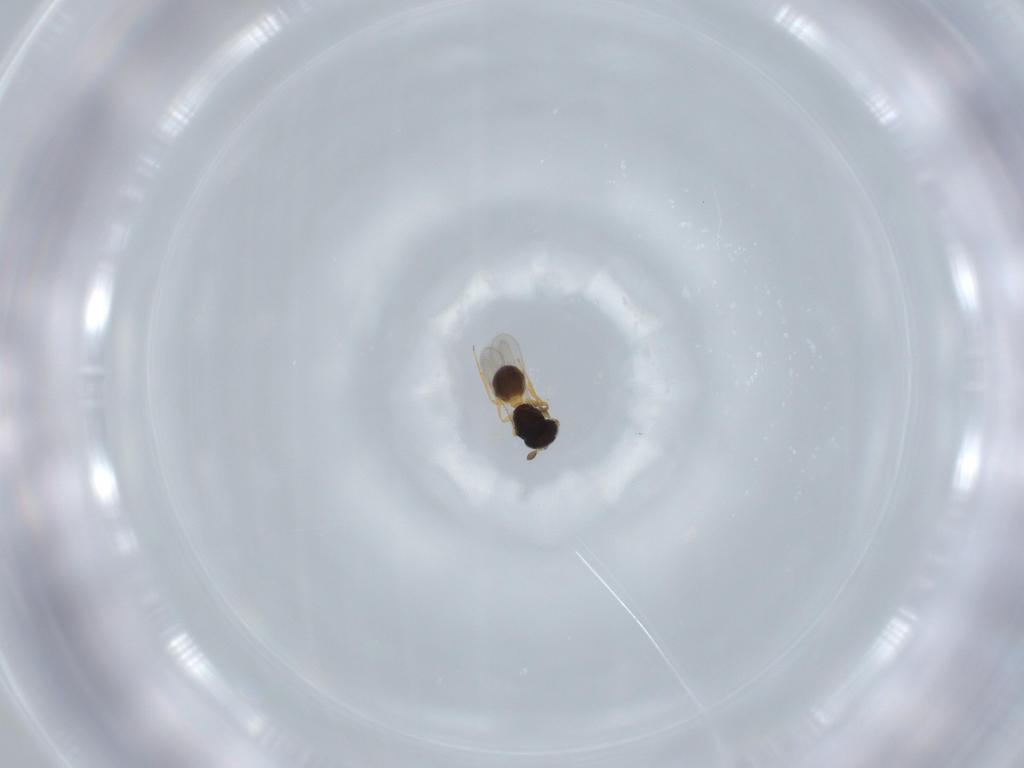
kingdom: Animalia
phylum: Arthropoda
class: Insecta
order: Hymenoptera
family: Scelionidae
